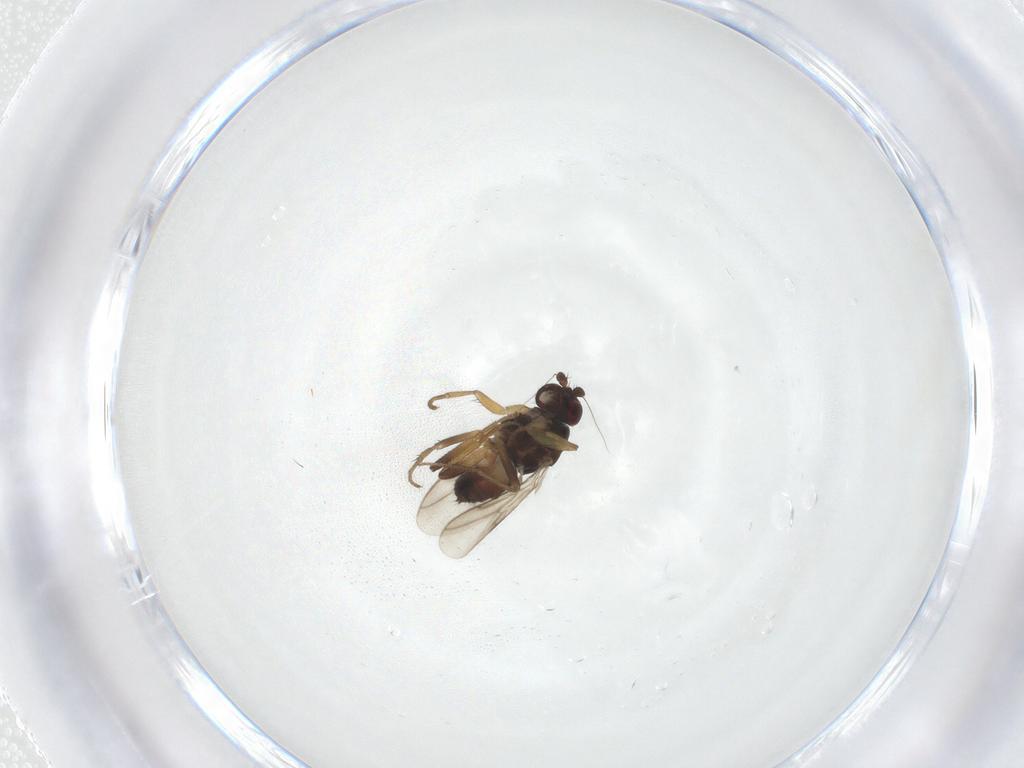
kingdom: Animalia
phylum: Arthropoda
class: Insecta
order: Diptera
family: Sphaeroceridae
